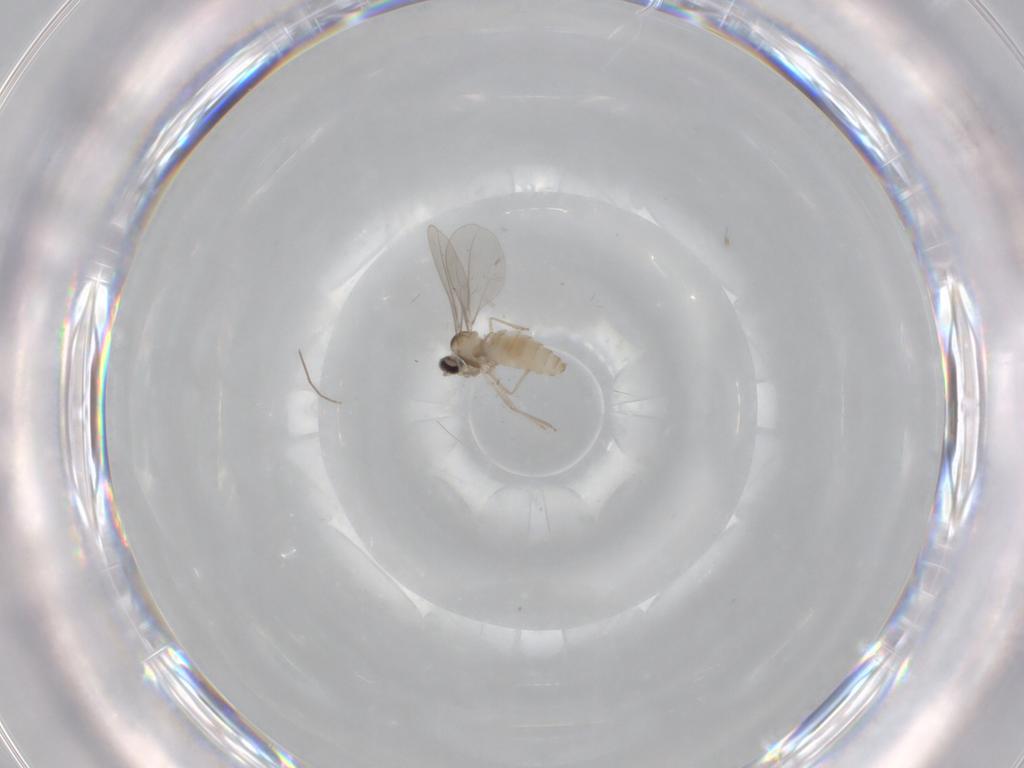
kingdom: Animalia
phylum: Arthropoda
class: Insecta
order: Diptera
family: Chironomidae
